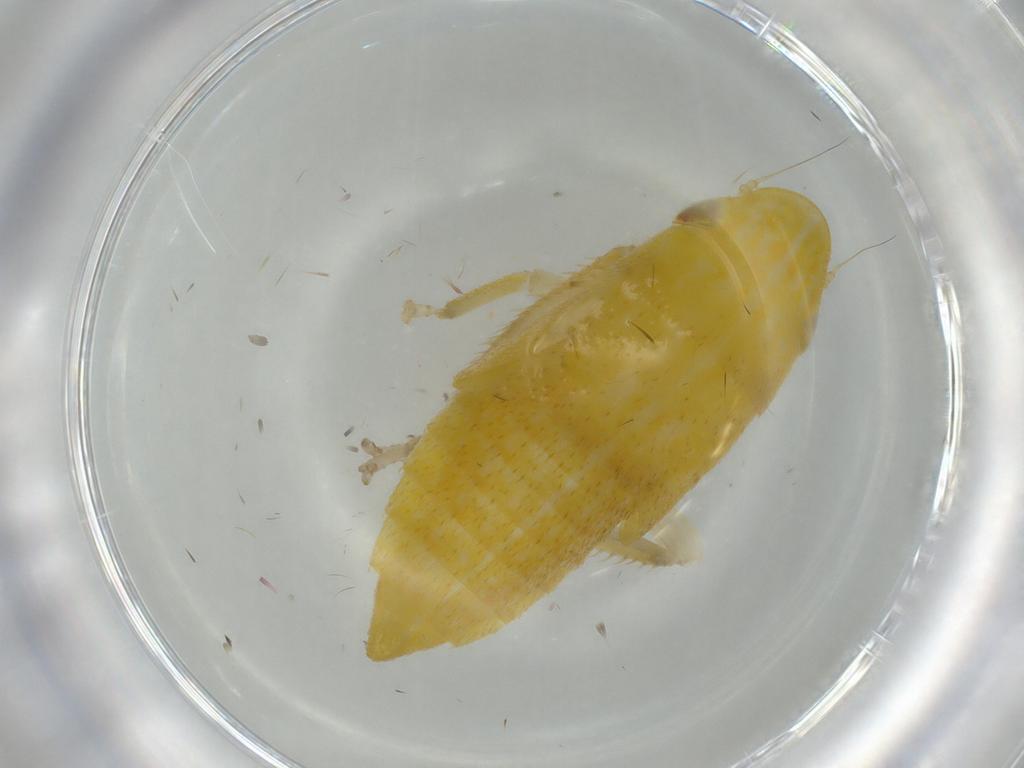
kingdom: Animalia
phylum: Arthropoda
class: Insecta
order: Hemiptera
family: Cicadellidae
